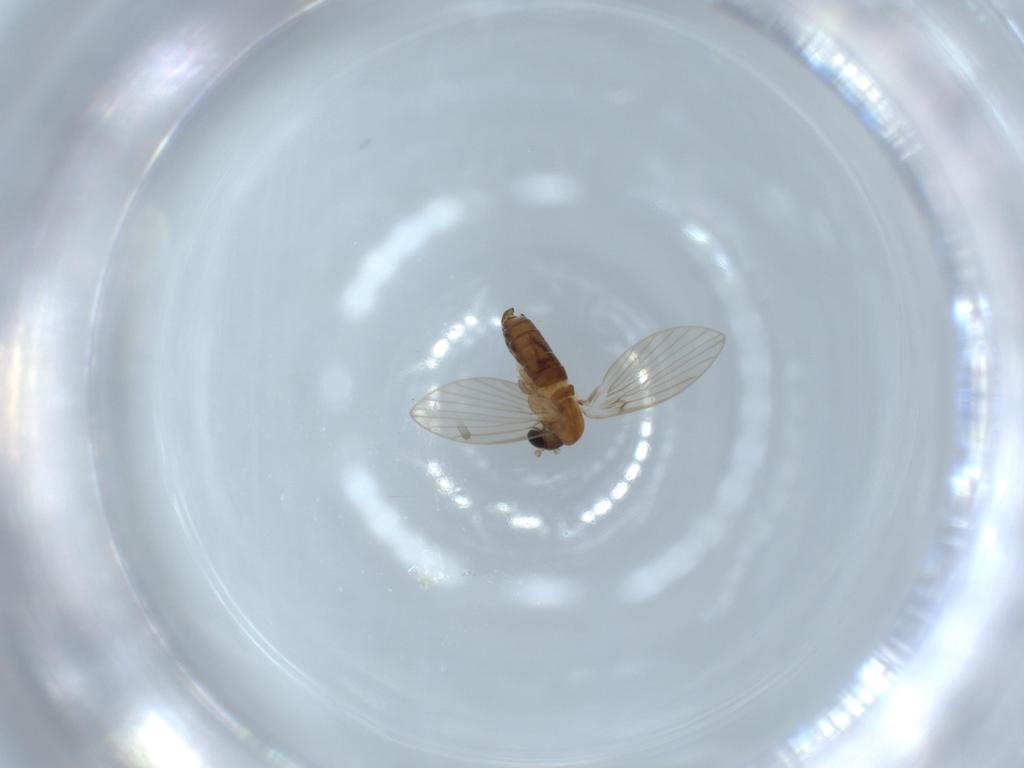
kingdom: Animalia
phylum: Arthropoda
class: Insecta
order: Diptera
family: Psychodidae
